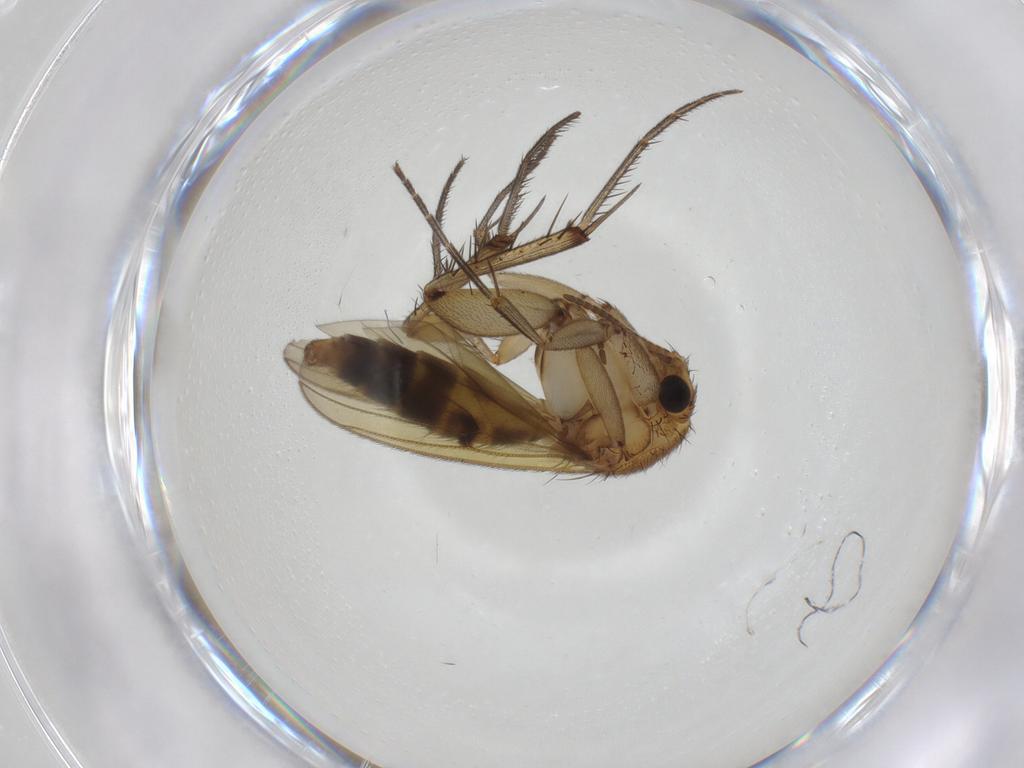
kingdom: Animalia
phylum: Arthropoda
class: Insecta
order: Diptera
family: Mycetophilidae
